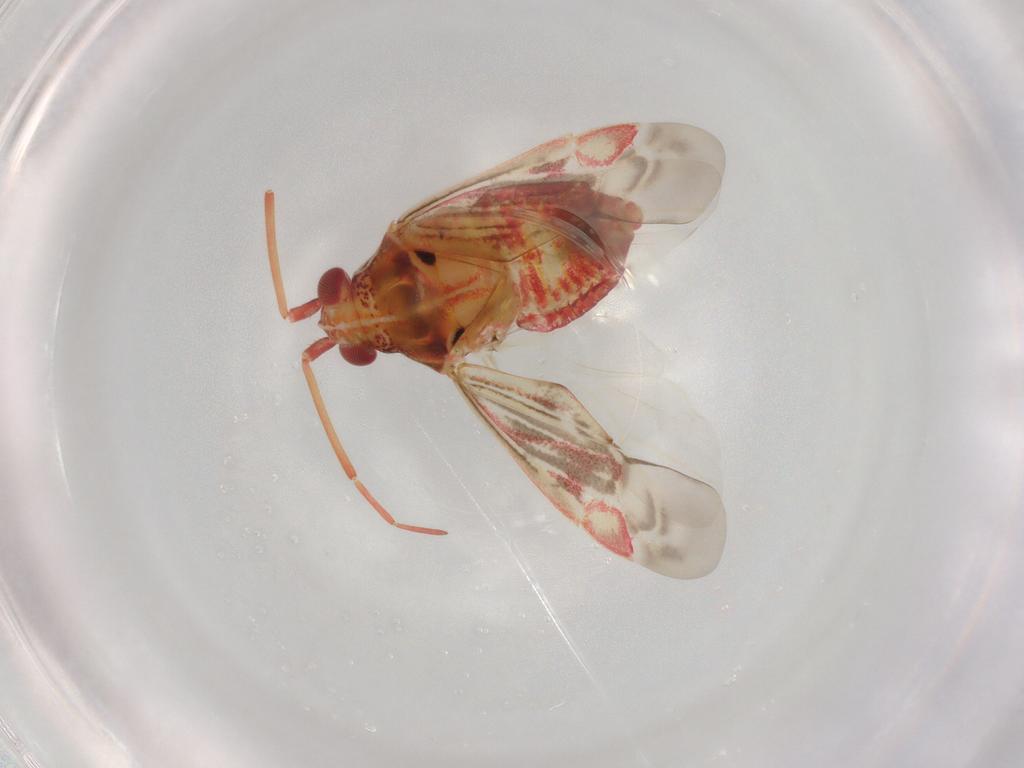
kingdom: Animalia
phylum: Arthropoda
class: Insecta
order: Hemiptera
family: Miridae
